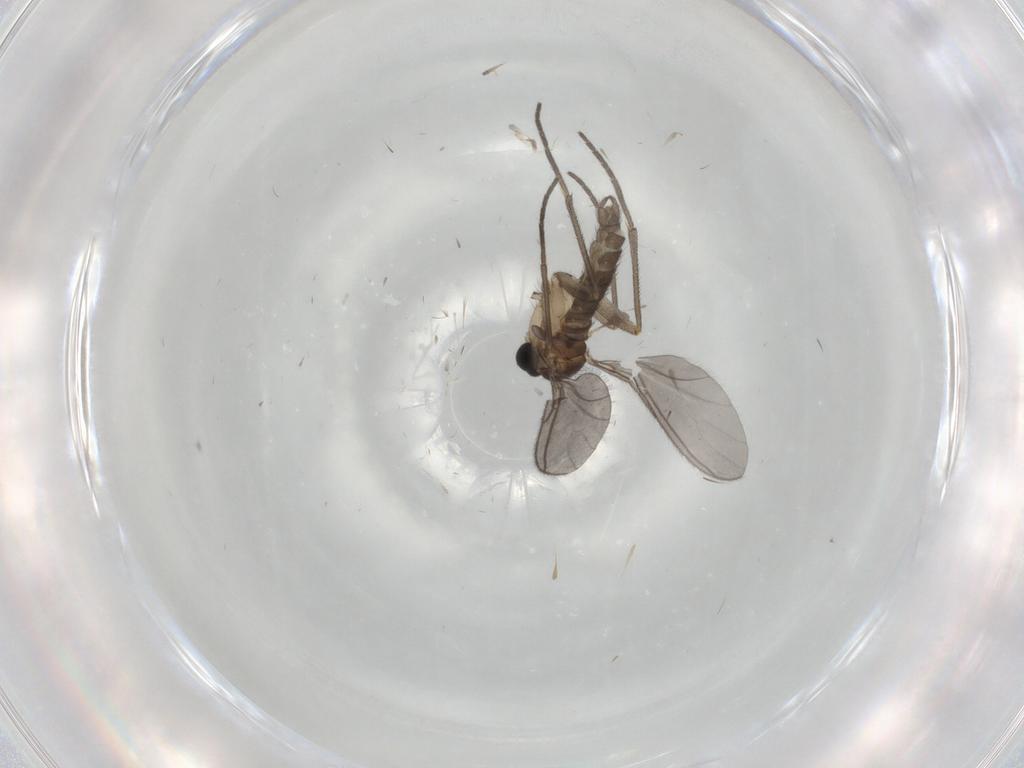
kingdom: Animalia
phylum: Arthropoda
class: Insecta
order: Diptera
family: Sciaridae
